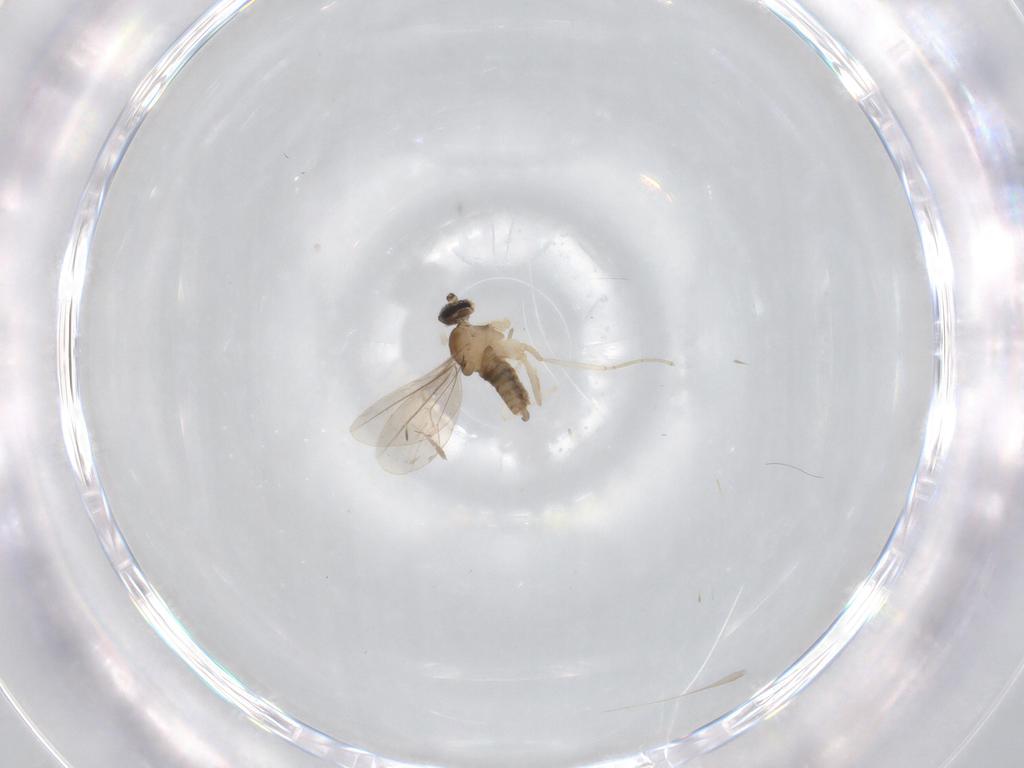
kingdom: Animalia
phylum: Arthropoda
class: Insecta
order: Diptera
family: Cecidomyiidae
